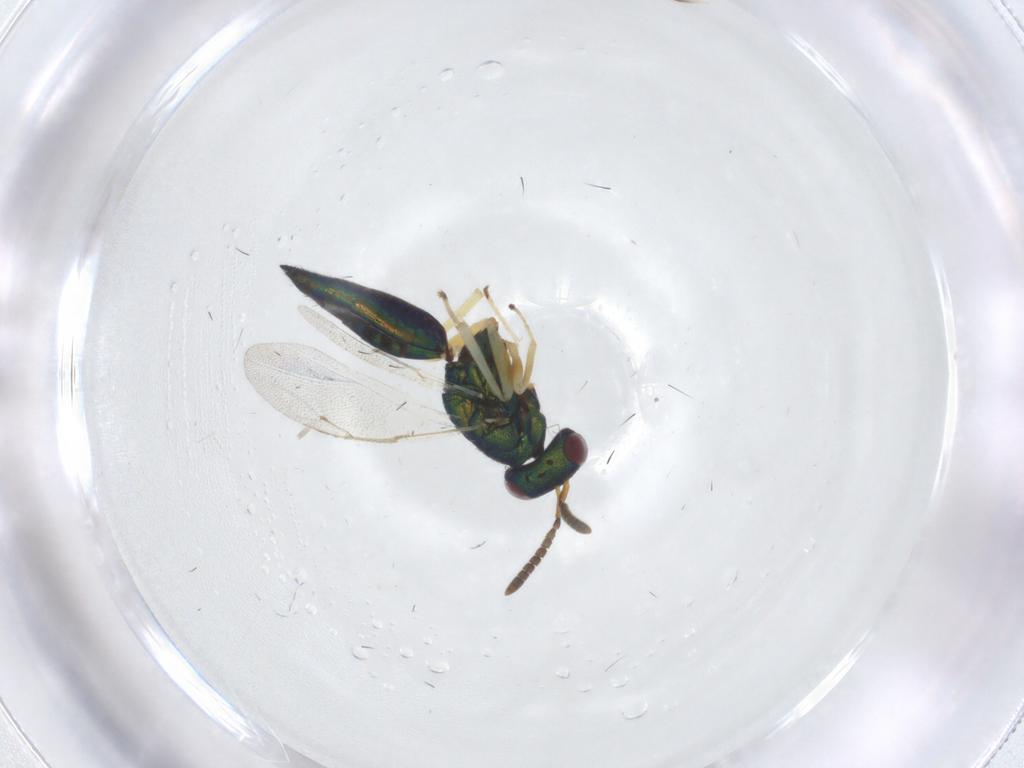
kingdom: Animalia
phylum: Arthropoda
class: Insecta
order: Hymenoptera
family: Pteromalidae
